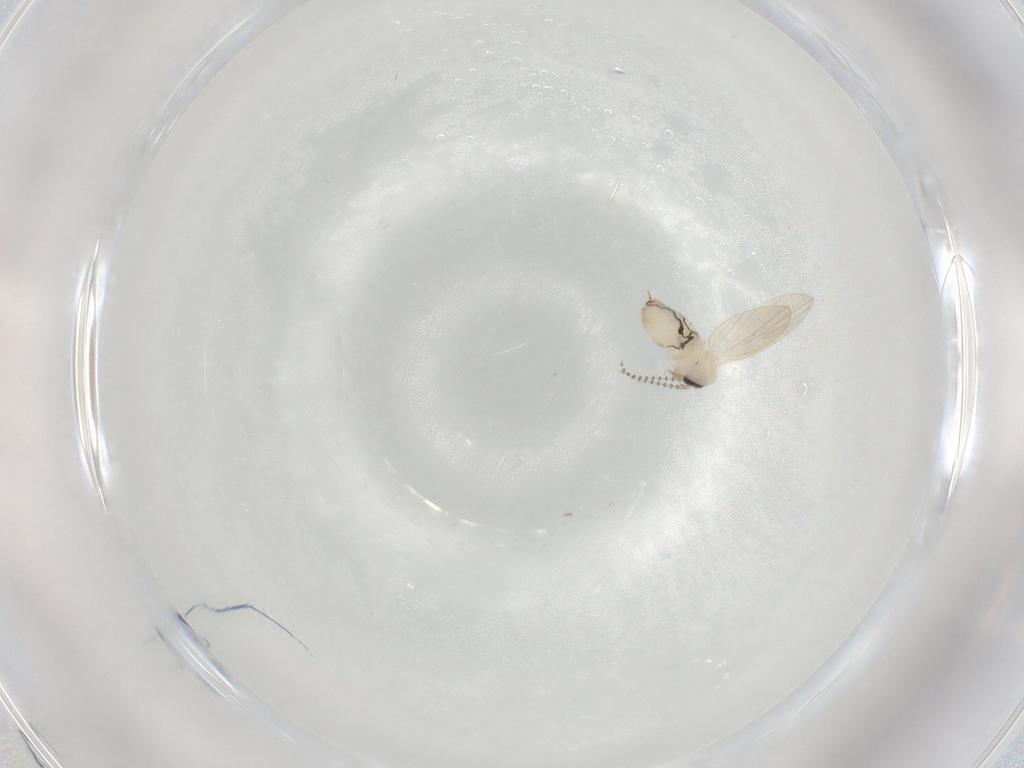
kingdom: Animalia
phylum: Arthropoda
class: Insecta
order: Diptera
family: Psychodidae
